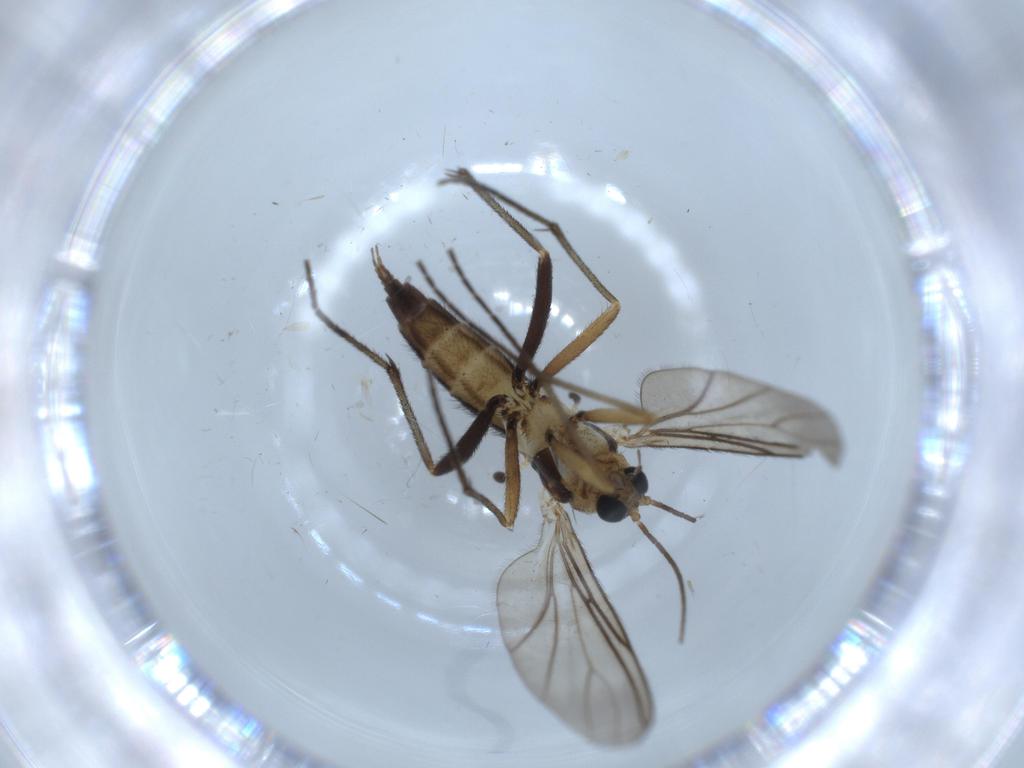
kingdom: Animalia
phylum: Arthropoda
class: Insecta
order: Diptera
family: Sciaridae
